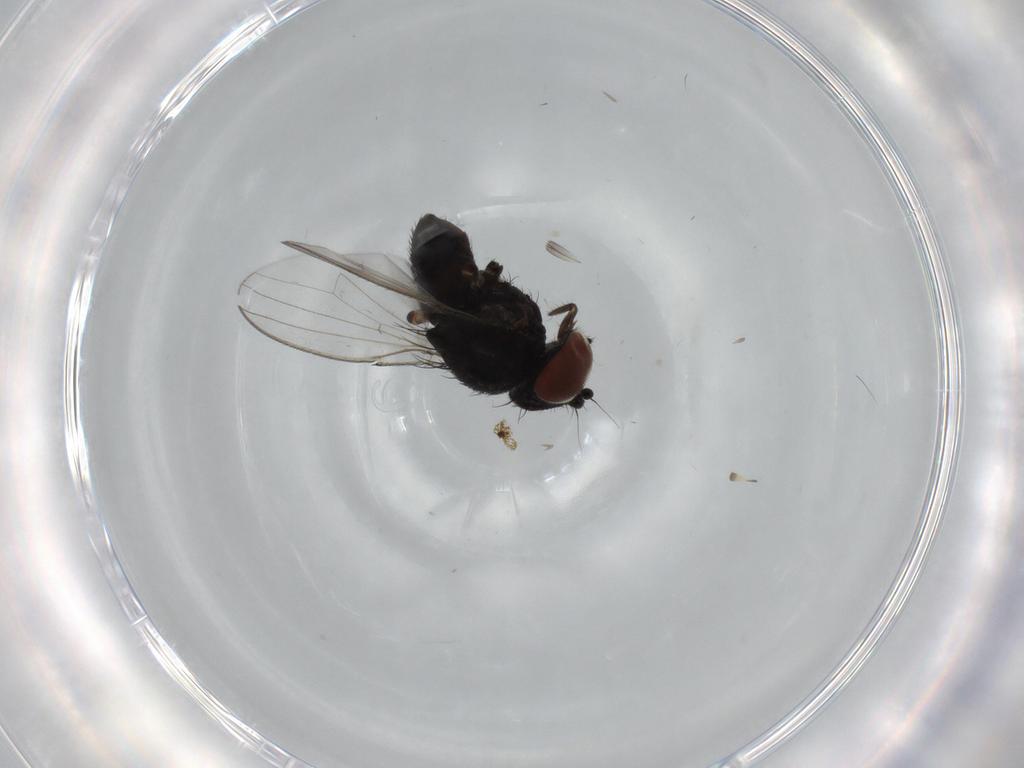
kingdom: Animalia
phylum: Arthropoda
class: Insecta
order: Diptera
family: Milichiidae
